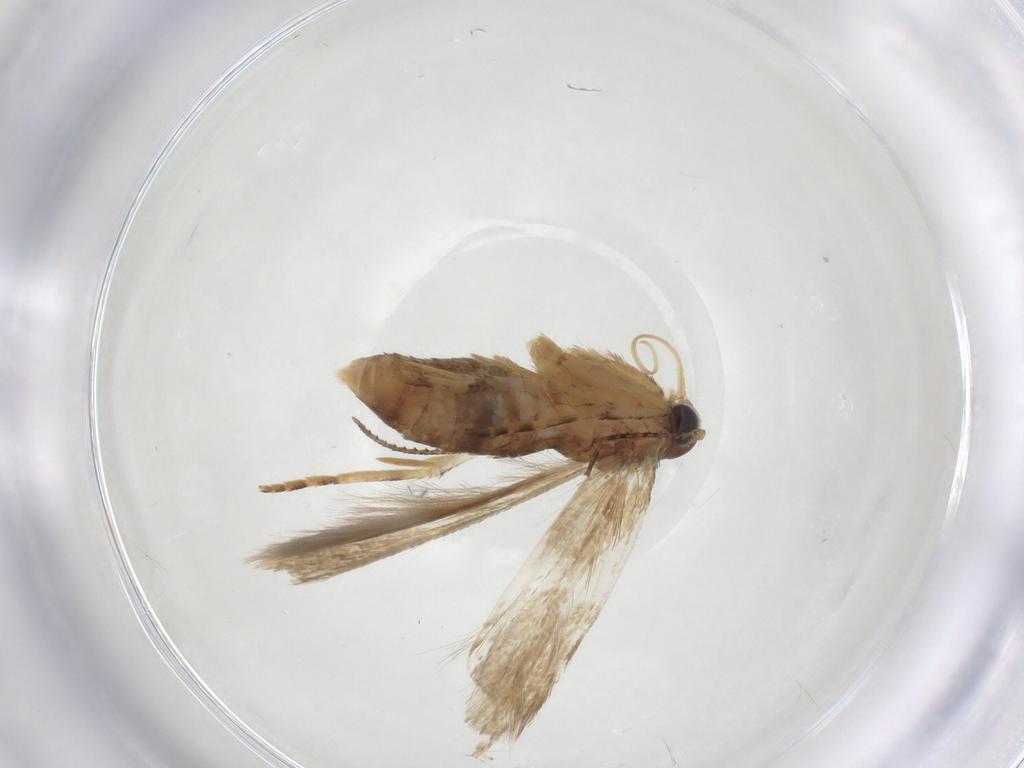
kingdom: Animalia
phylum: Arthropoda
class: Insecta
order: Lepidoptera
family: Gelechiidae
